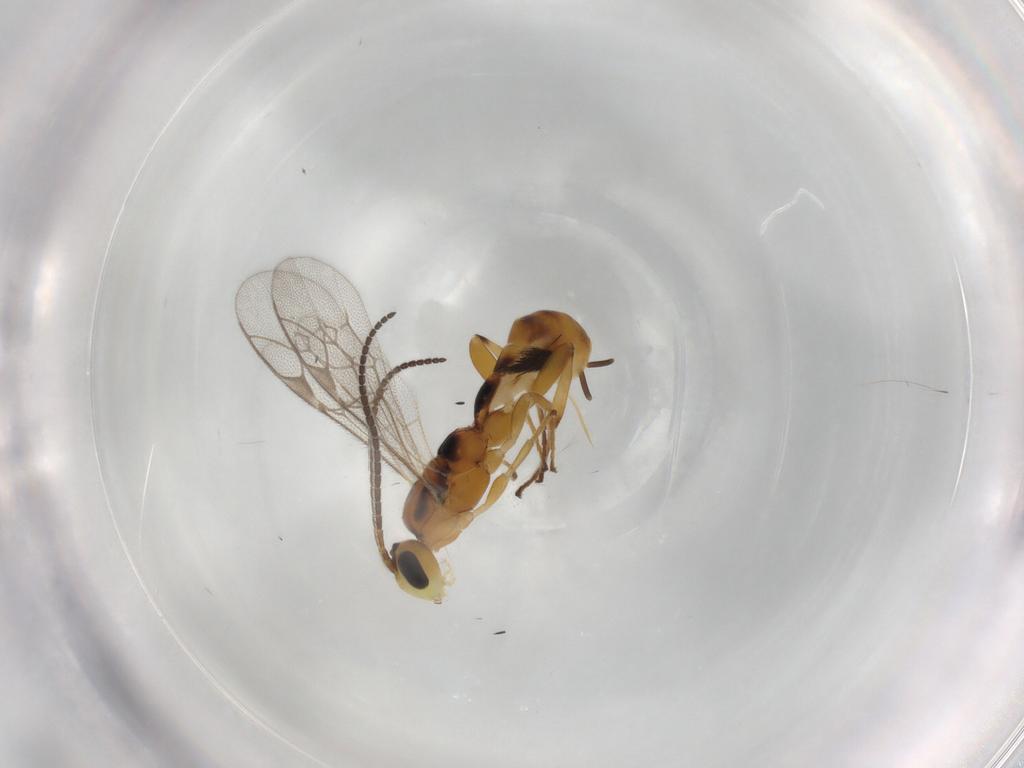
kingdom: Animalia
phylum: Arthropoda
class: Insecta
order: Hymenoptera
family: Ichneumonidae
